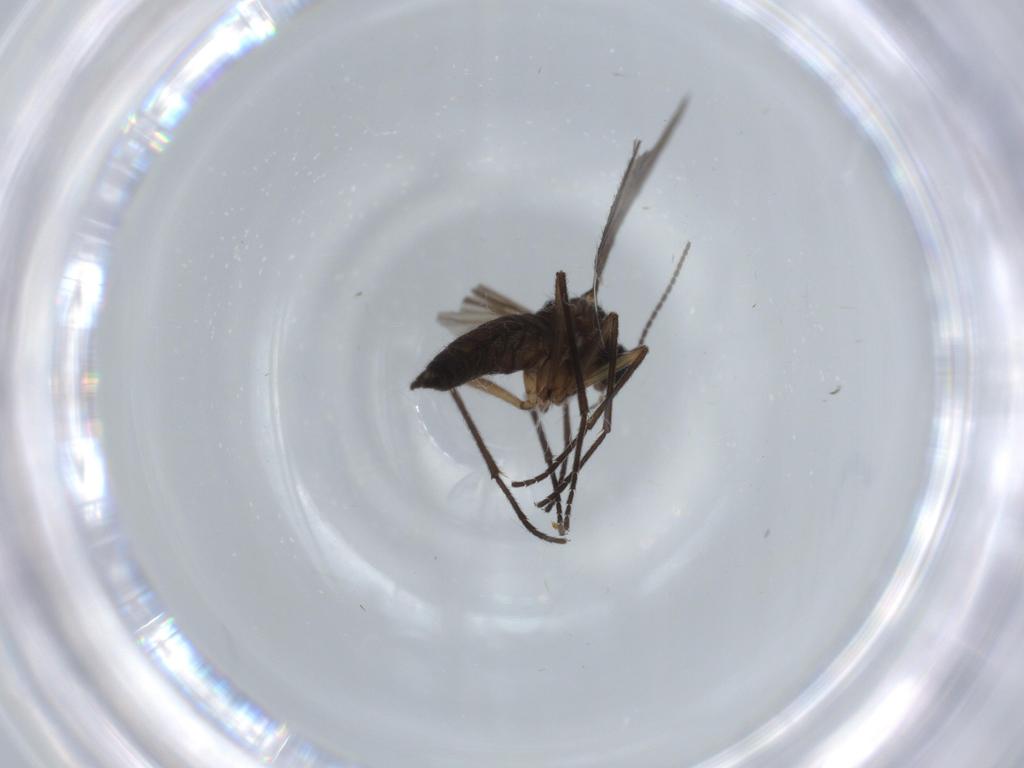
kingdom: Animalia
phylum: Arthropoda
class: Insecta
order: Diptera
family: Sciaridae
